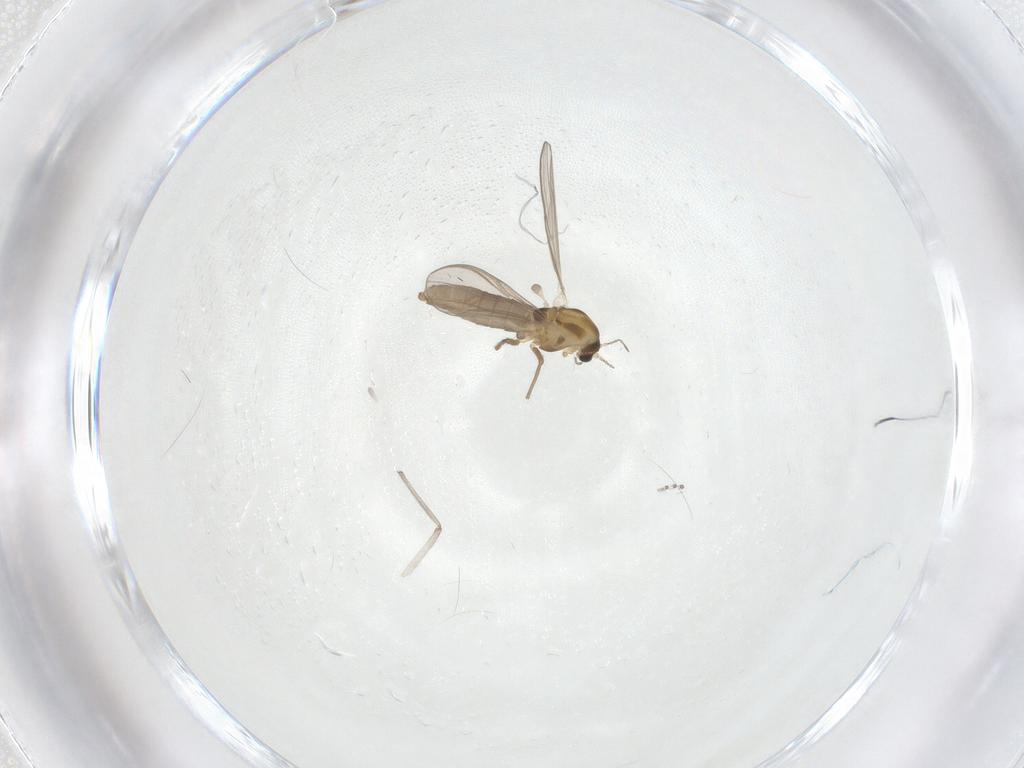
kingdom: Animalia
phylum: Arthropoda
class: Insecta
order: Diptera
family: Chironomidae
